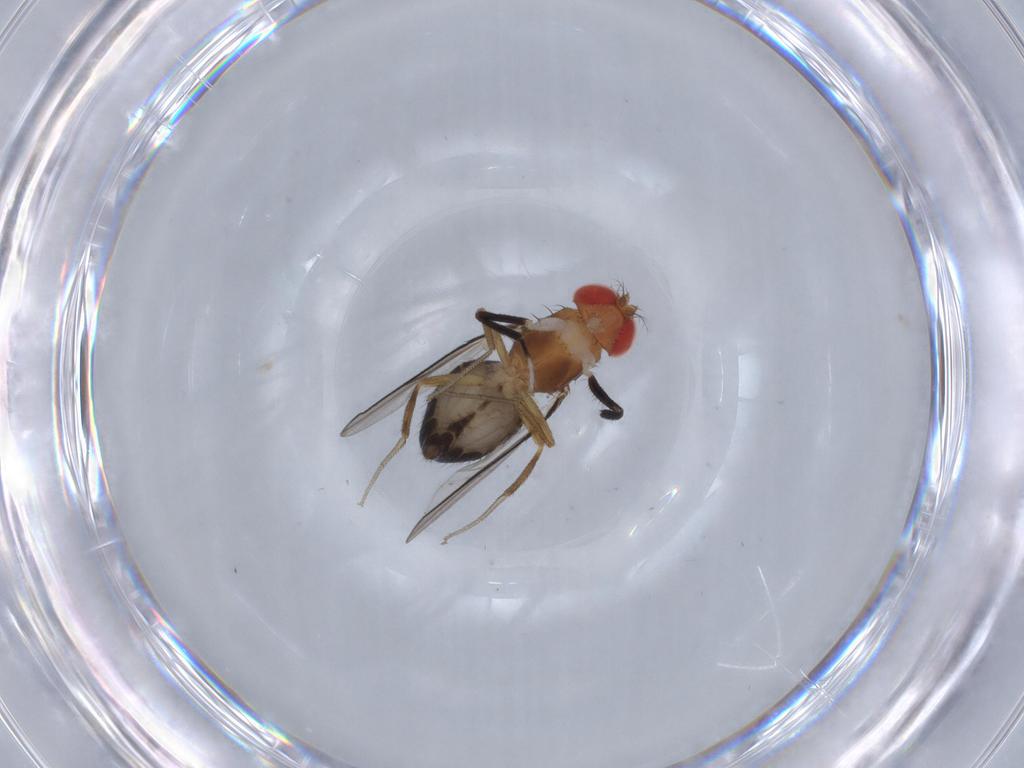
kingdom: Animalia
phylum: Arthropoda
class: Insecta
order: Diptera
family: Drosophilidae
